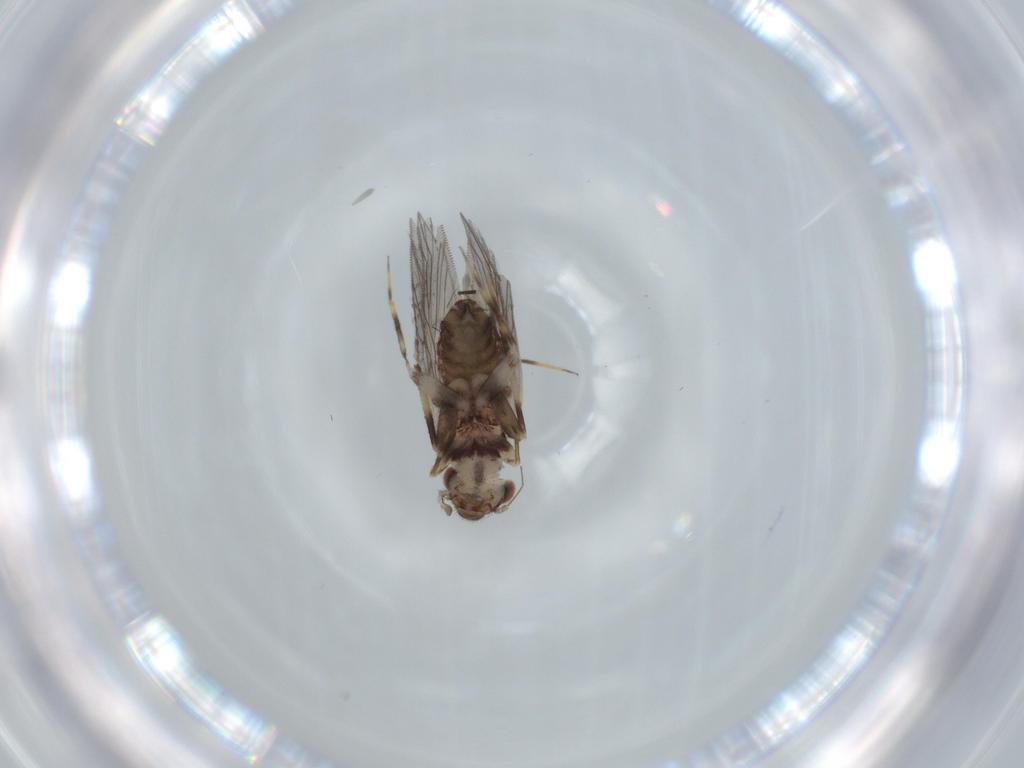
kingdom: Animalia
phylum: Arthropoda
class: Insecta
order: Psocodea
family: Lepidopsocidae
